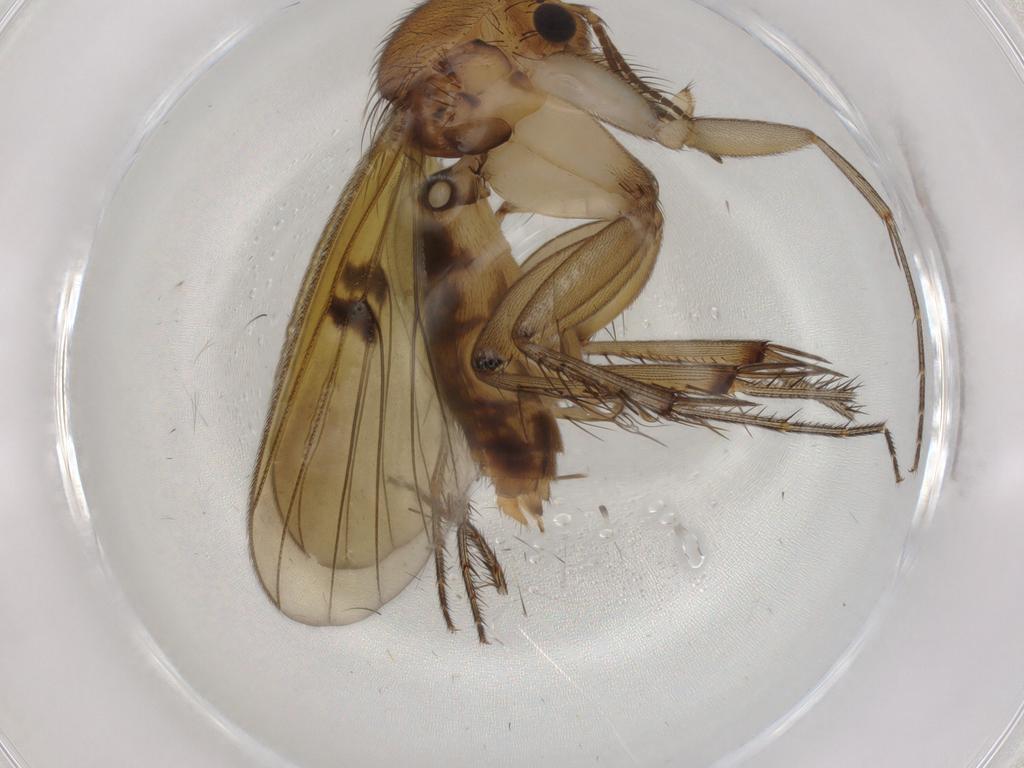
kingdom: Animalia
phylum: Arthropoda
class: Insecta
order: Diptera
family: Mycetophilidae
